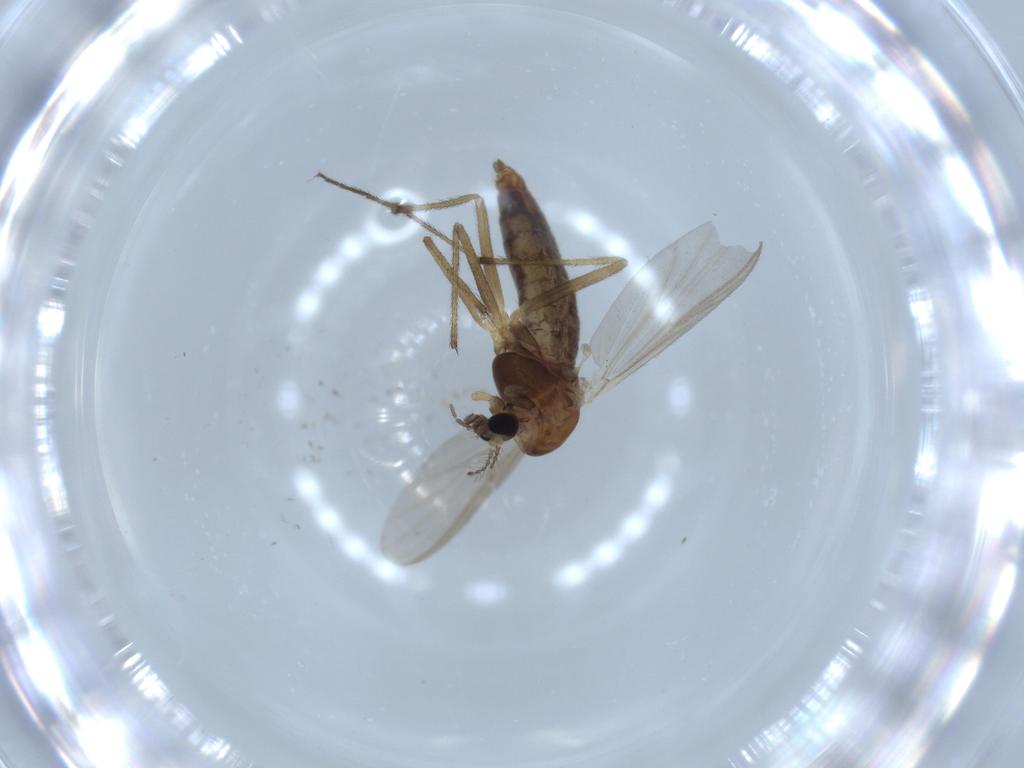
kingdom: Animalia
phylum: Arthropoda
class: Insecta
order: Diptera
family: Chironomidae
